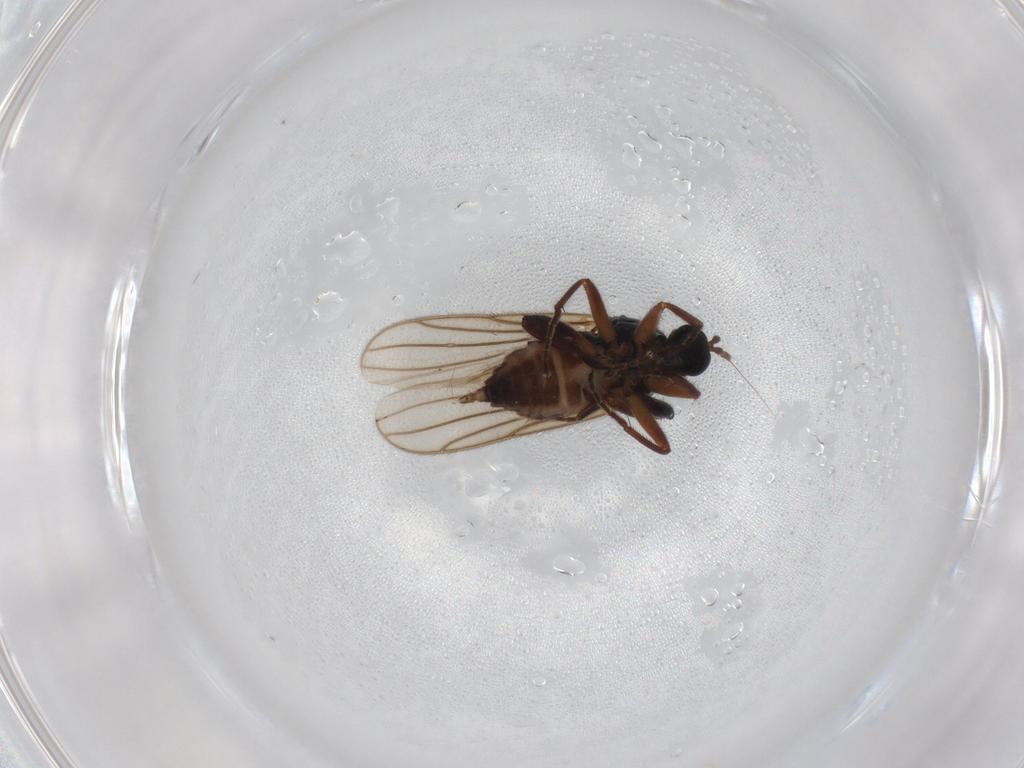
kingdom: Animalia
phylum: Arthropoda
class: Insecta
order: Diptera
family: Hybotidae
